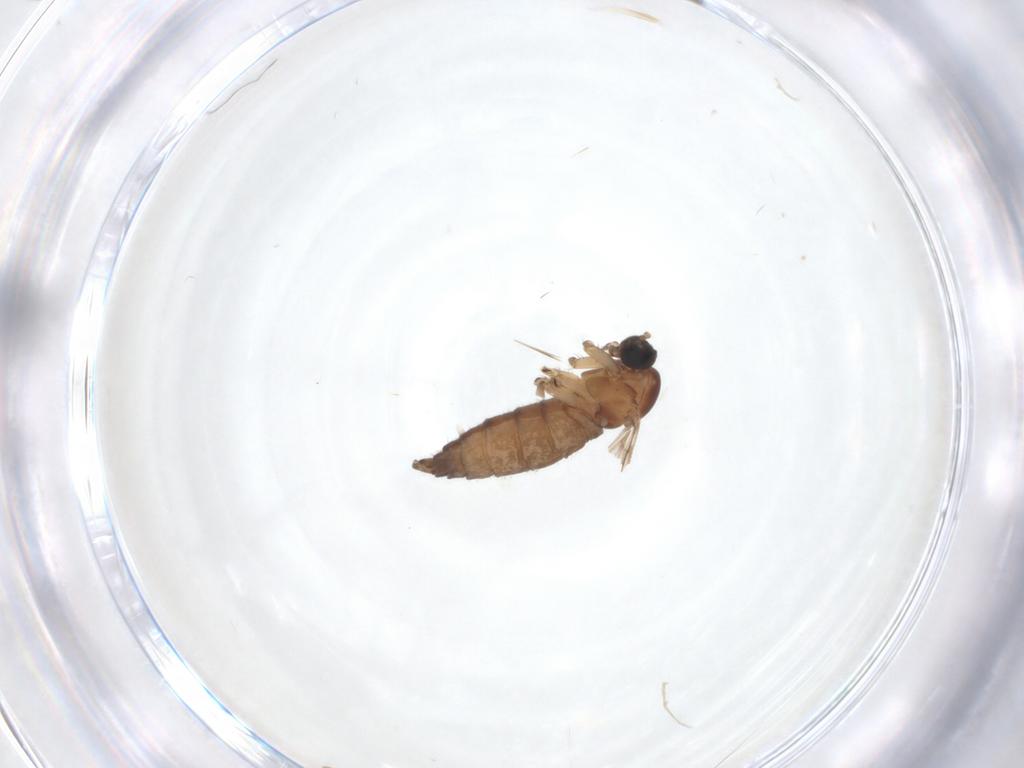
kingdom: Animalia
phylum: Arthropoda
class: Insecta
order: Diptera
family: Sciaridae
